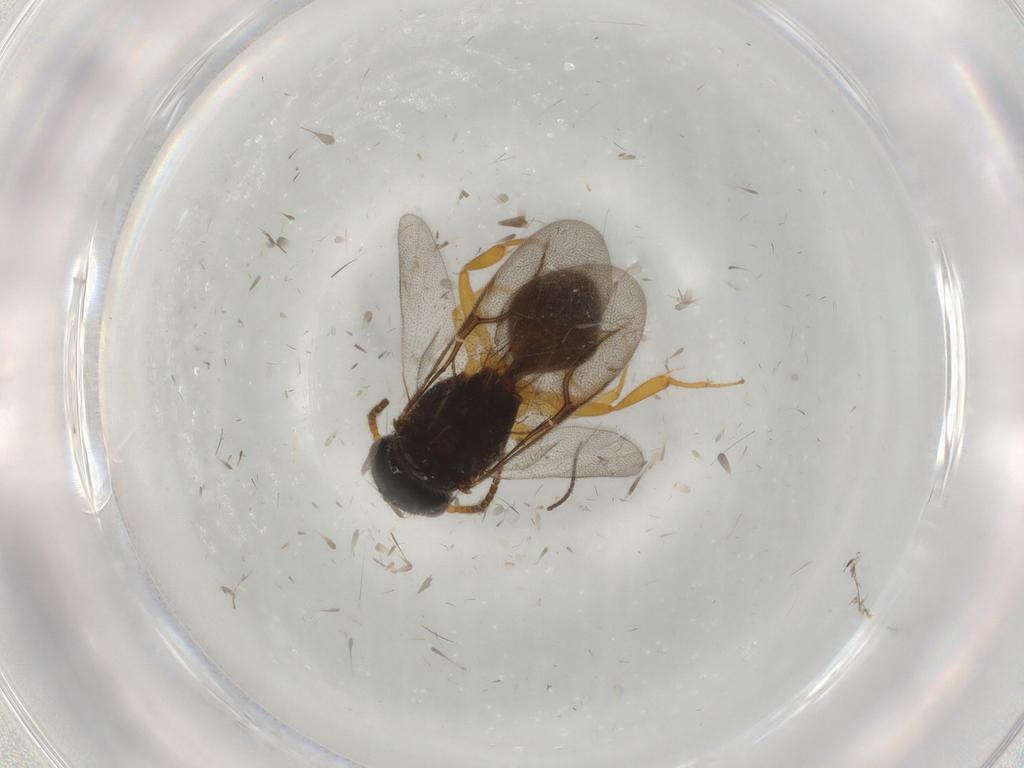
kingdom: Animalia
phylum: Arthropoda
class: Insecta
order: Hymenoptera
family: Bethylidae
